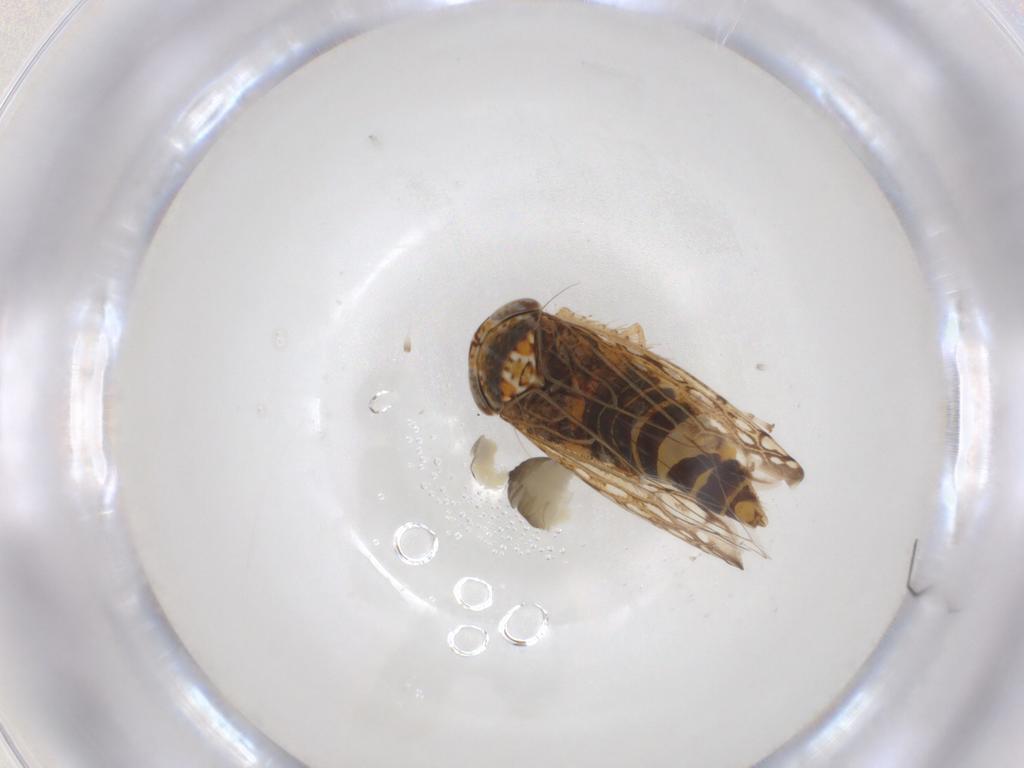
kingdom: Animalia
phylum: Arthropoda
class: Insecta
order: Hemiptera
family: Cicadellidae
